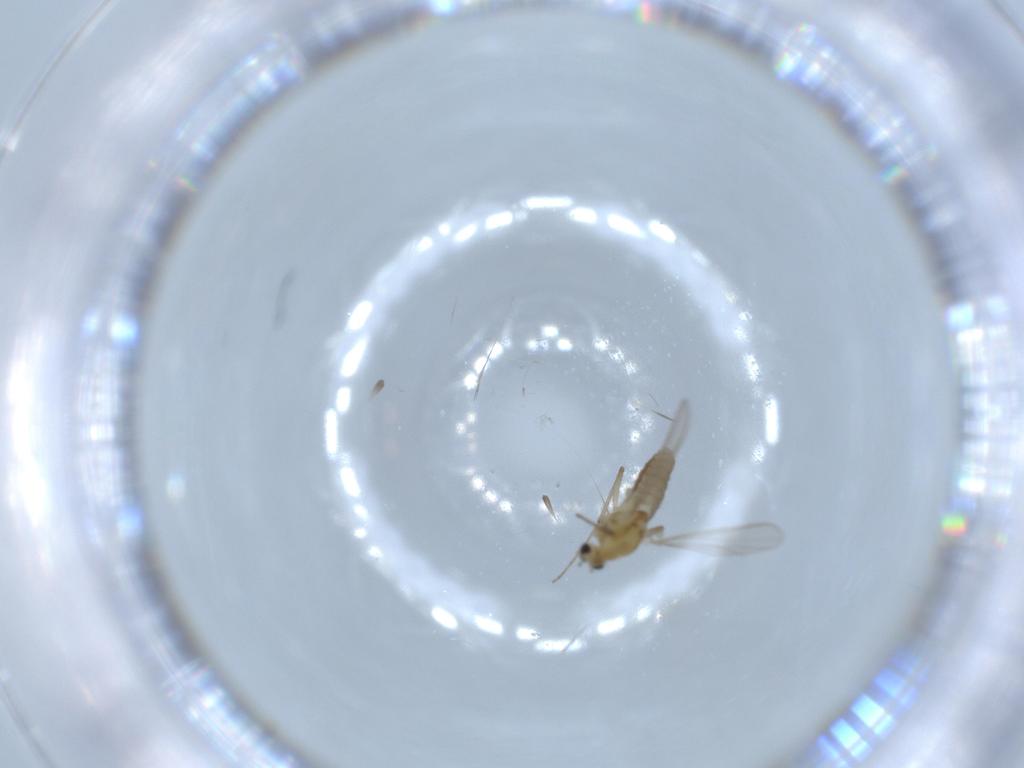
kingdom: Animalia
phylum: Arthropoda
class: Insecta
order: Diptera
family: Chironomidae
